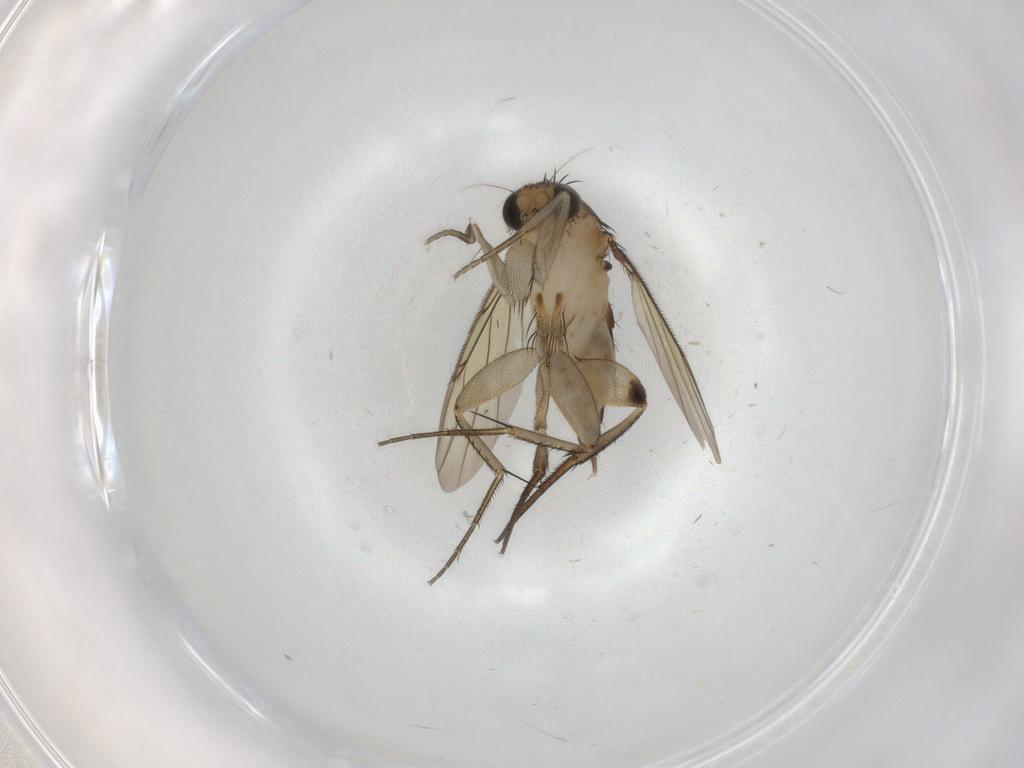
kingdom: Animalia
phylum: Arthropoda
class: Insecta
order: Diptera
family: Phoridae
